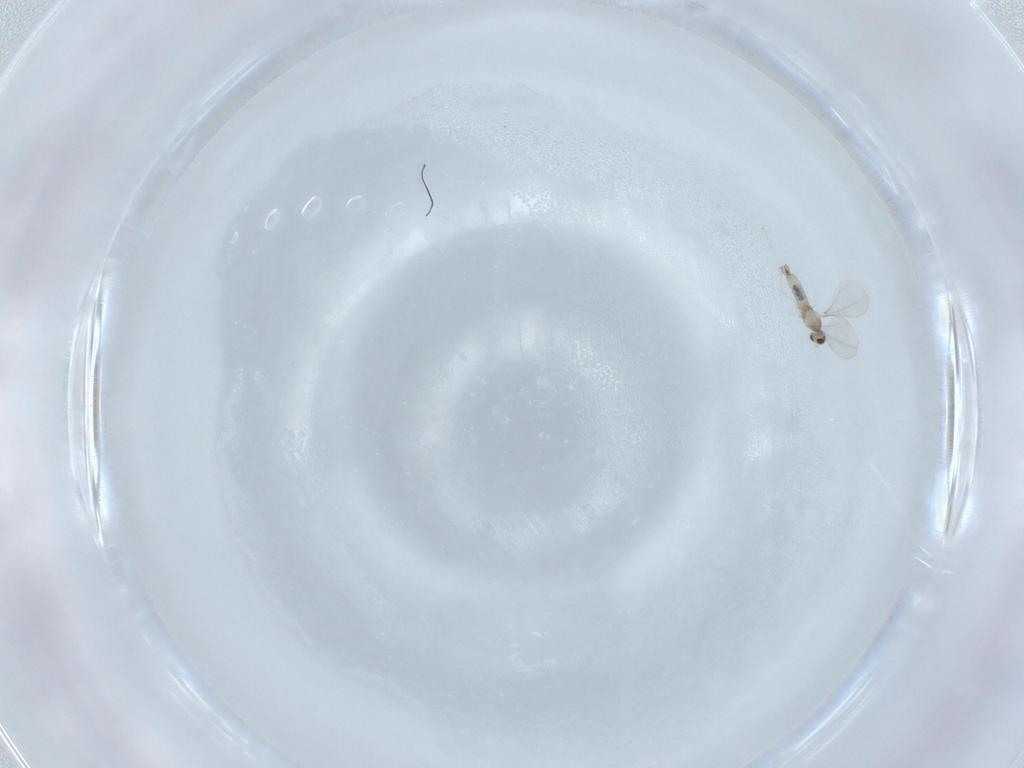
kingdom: Animalia
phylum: Arthropoda
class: Insecta
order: Diptera
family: Cecidomyiidae
